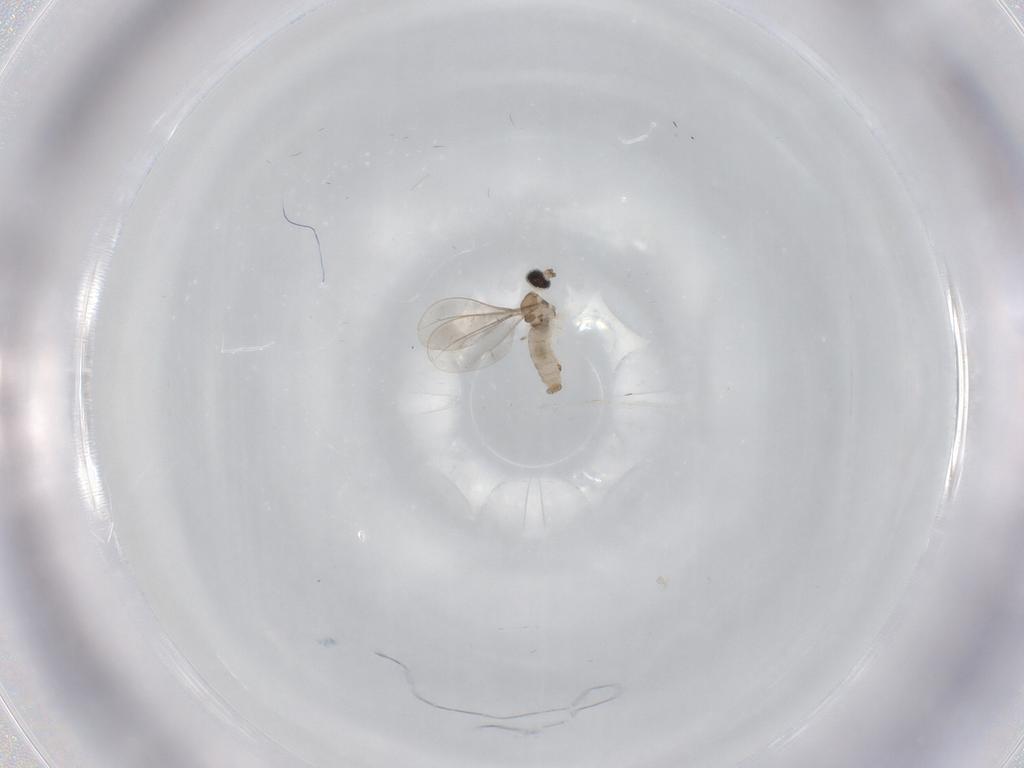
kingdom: Animalia
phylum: Arthropoda
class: Insecta
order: Diptera
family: Cecidomyiidae
